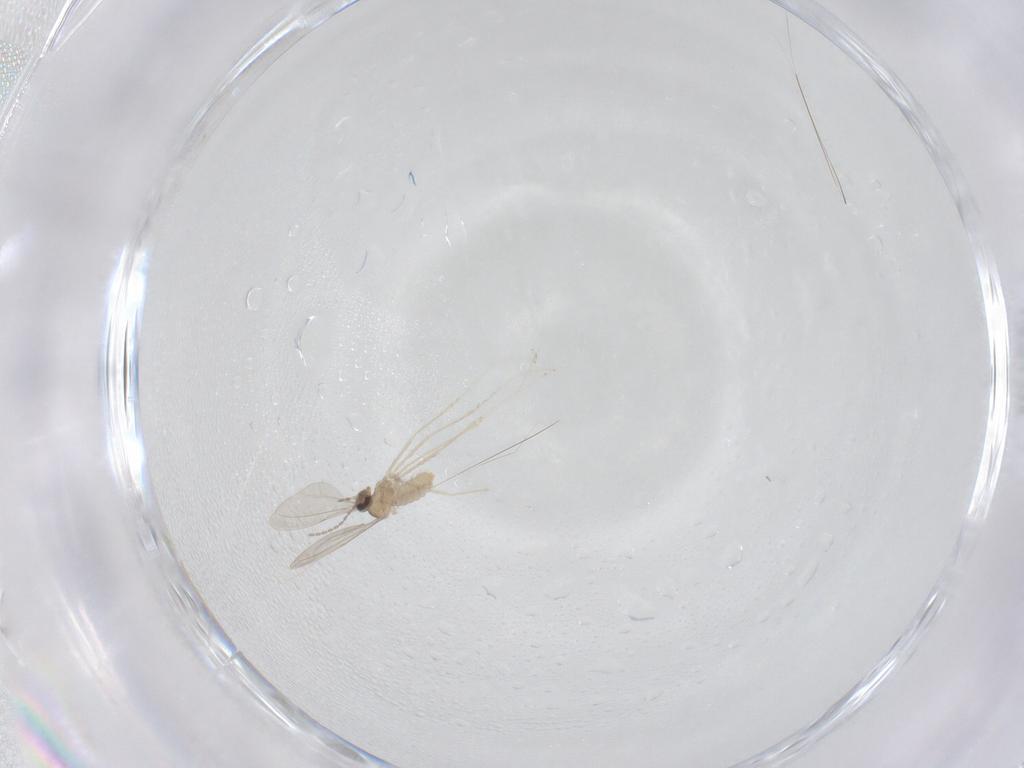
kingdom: Animalia
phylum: Arthropoda
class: Insecta
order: Diptera
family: Cecidomyiidae
